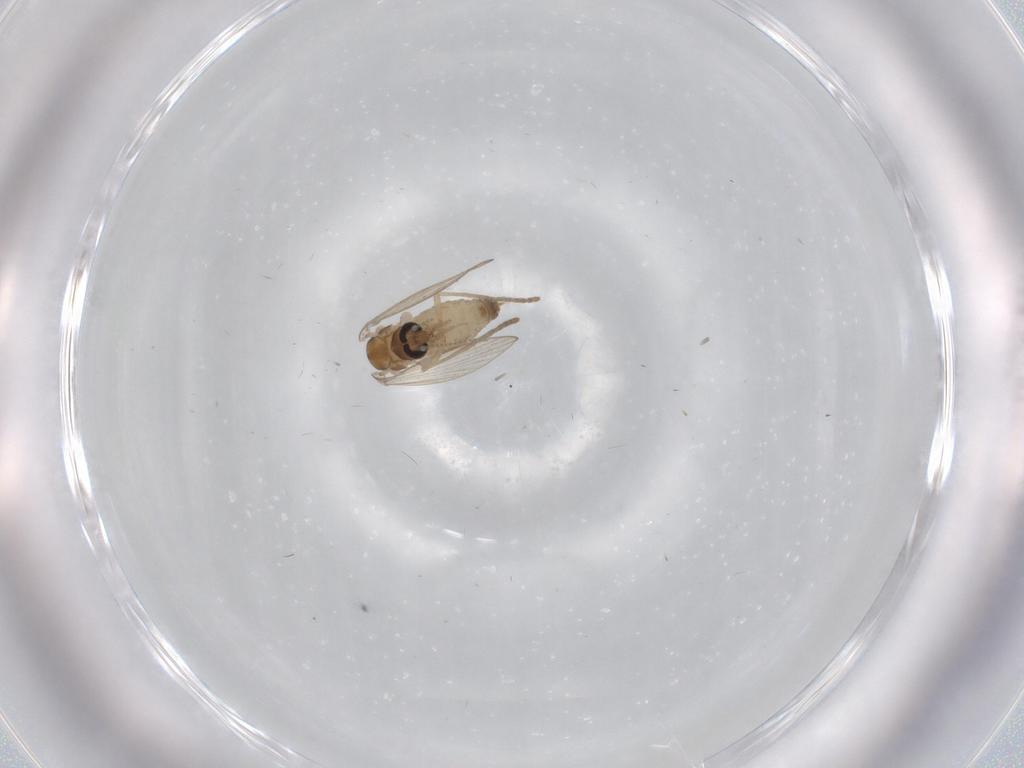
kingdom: Animalia
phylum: Arthropoda
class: Insecta
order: Diptera
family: Psychodidae
